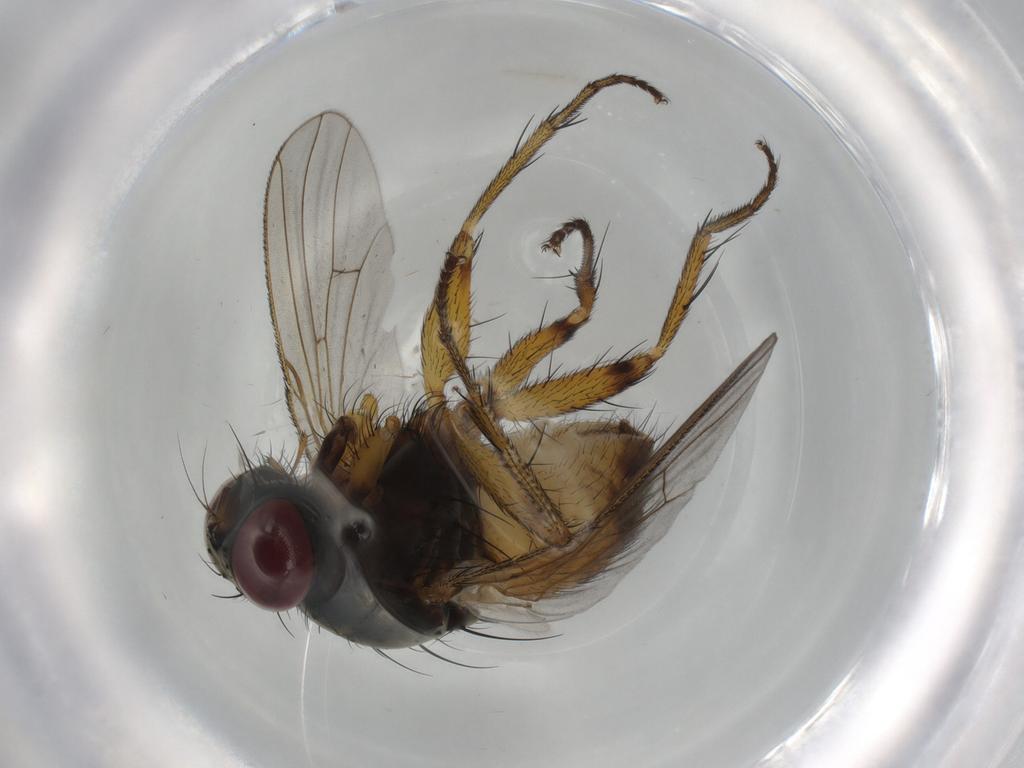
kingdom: Animalia
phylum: Arthropoda
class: Insecta
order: Diptera
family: Muscidae
